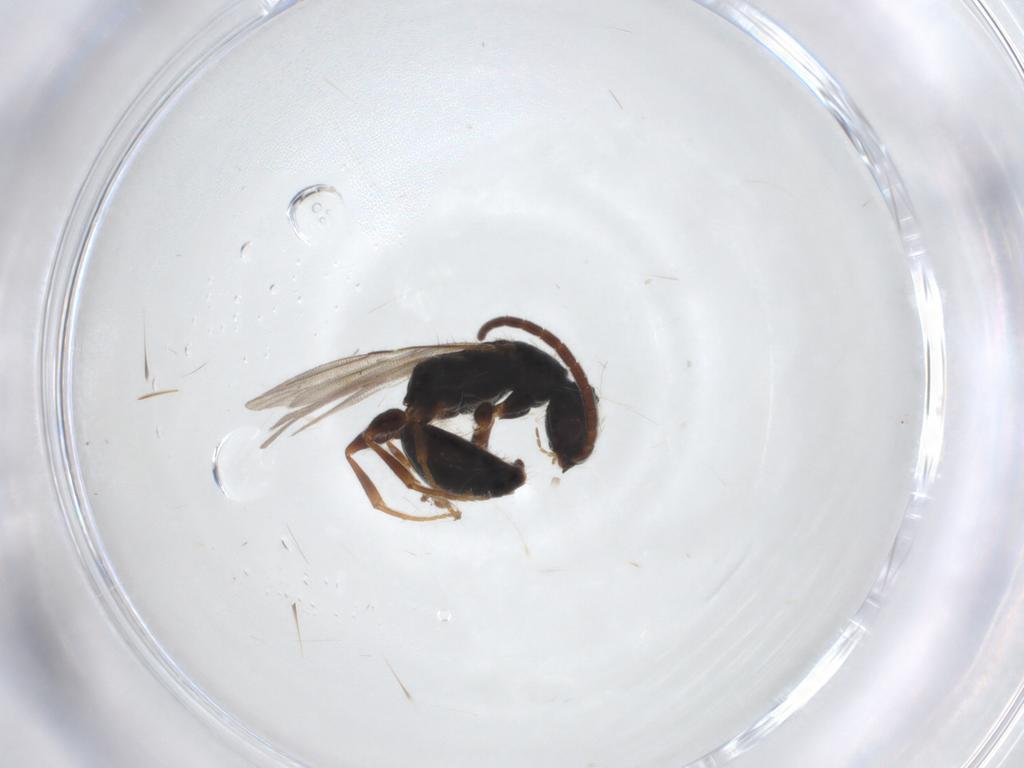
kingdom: Animalia
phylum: Arthropoda
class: Insecta
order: Hymenoptera
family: Bethylidae
